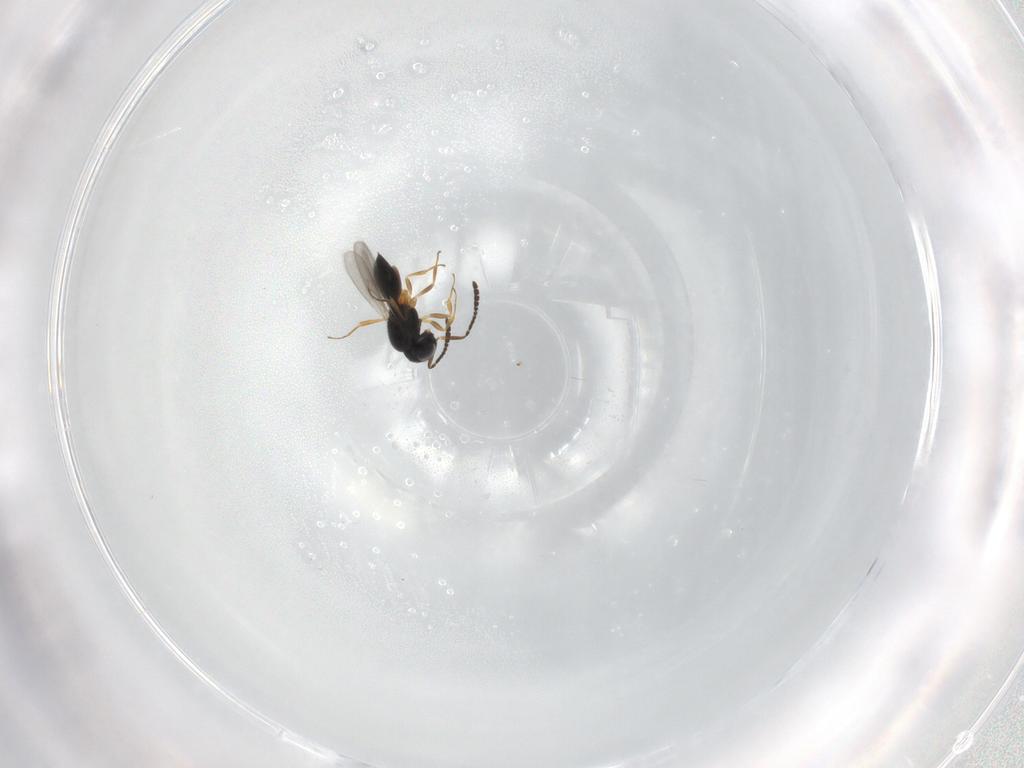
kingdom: Animalia
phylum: Arthropoda
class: Insecta
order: Hymenoptera
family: Scelionidae
